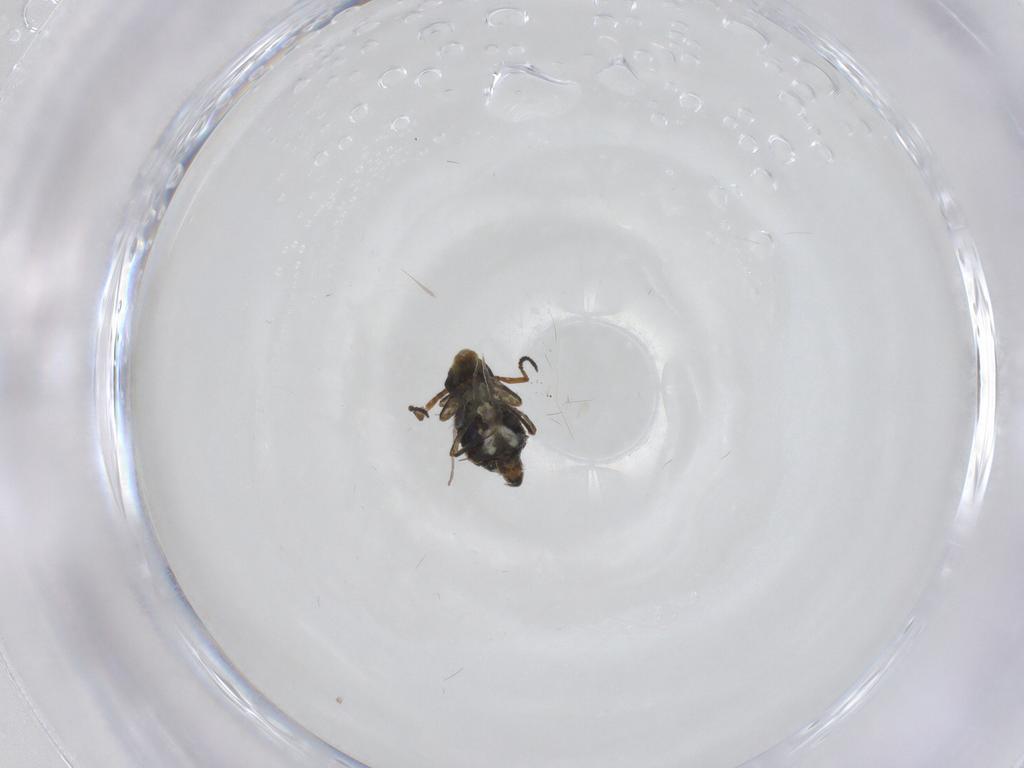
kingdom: Animalia
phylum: Arthropoda
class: Collembola
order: Symphypleona
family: Katiannidae
